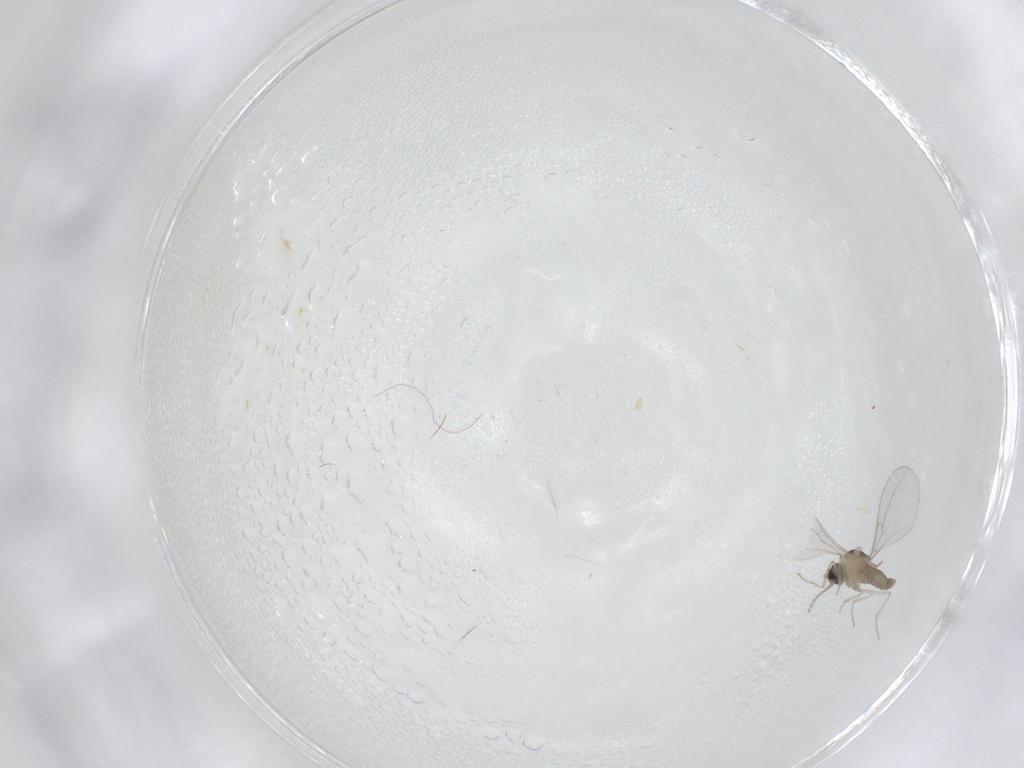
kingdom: Animalia
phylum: Arthropoda
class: Insecta
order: Diptera
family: Cecidomyiidae
